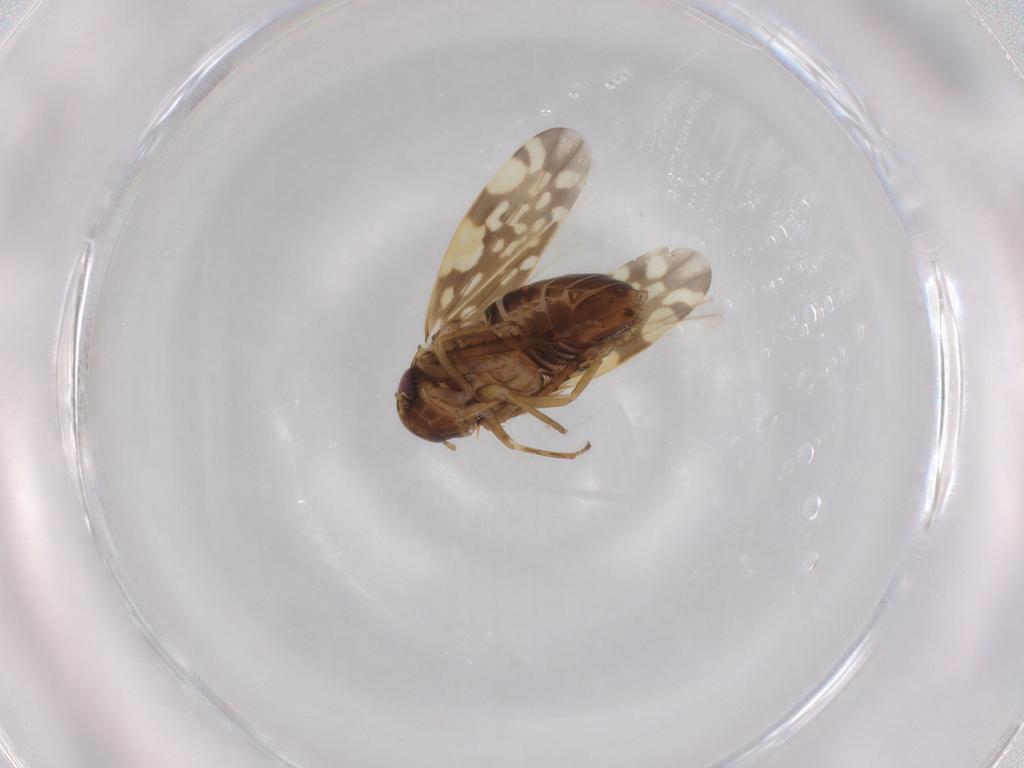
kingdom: Animalia
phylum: Arthropoda
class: Insecta
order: Hemiptera
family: Cicadellidae
